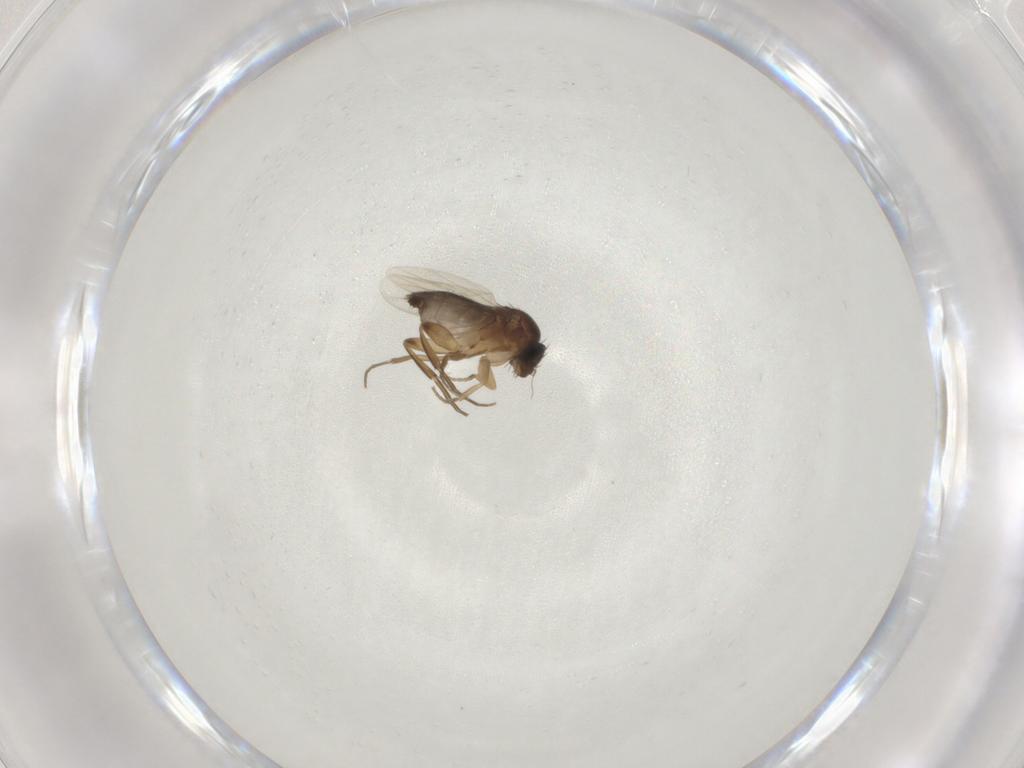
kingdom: Animalia
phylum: Arthropoda
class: Insecta
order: Diptera
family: Phoridae
